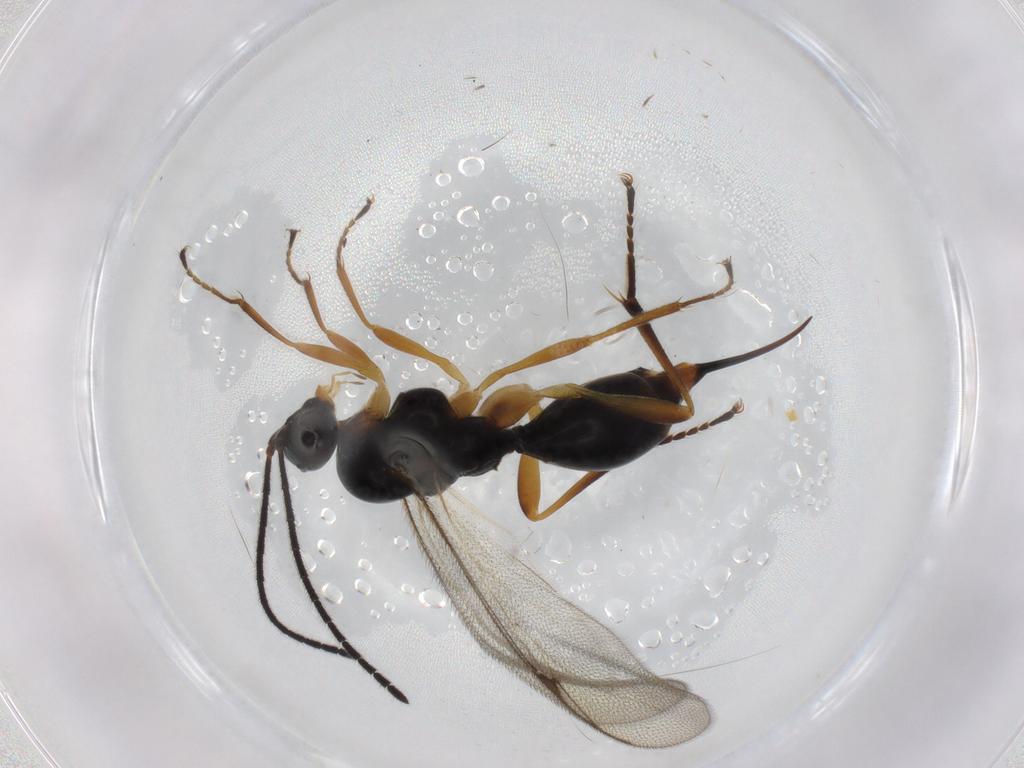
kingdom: Animalia
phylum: Arthropoda
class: Insecta
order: Hymenoptera
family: Proctotrupidae
